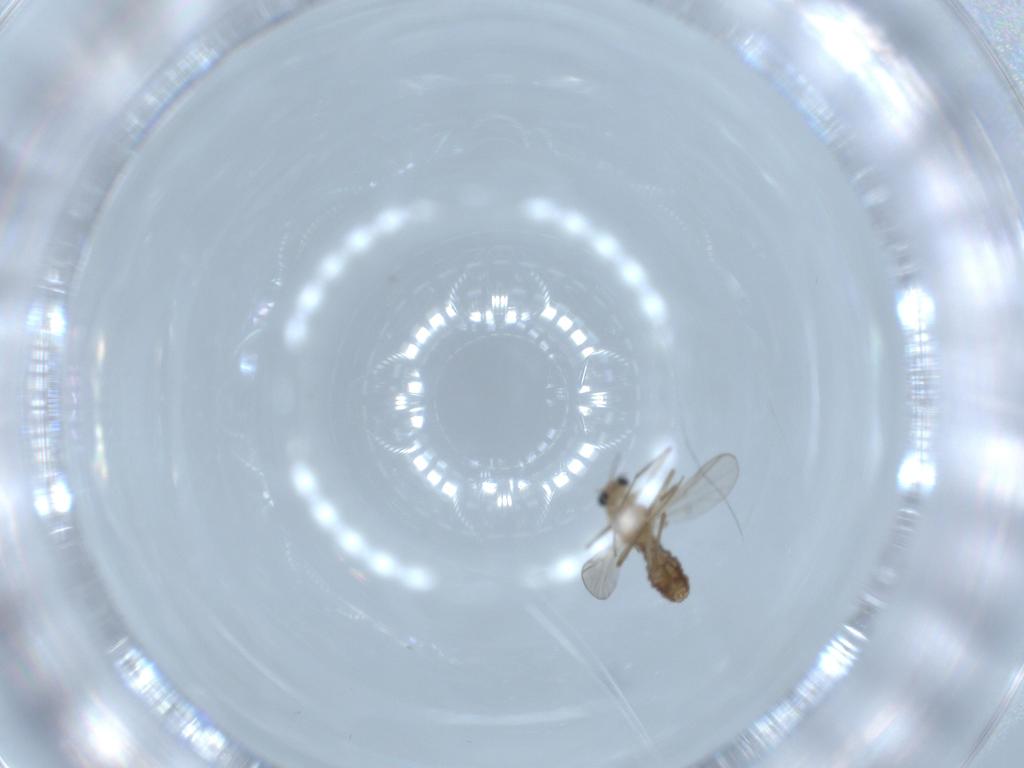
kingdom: Animalia
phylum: Arthropoda
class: Insecta
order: Diptera
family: Chironomidae
